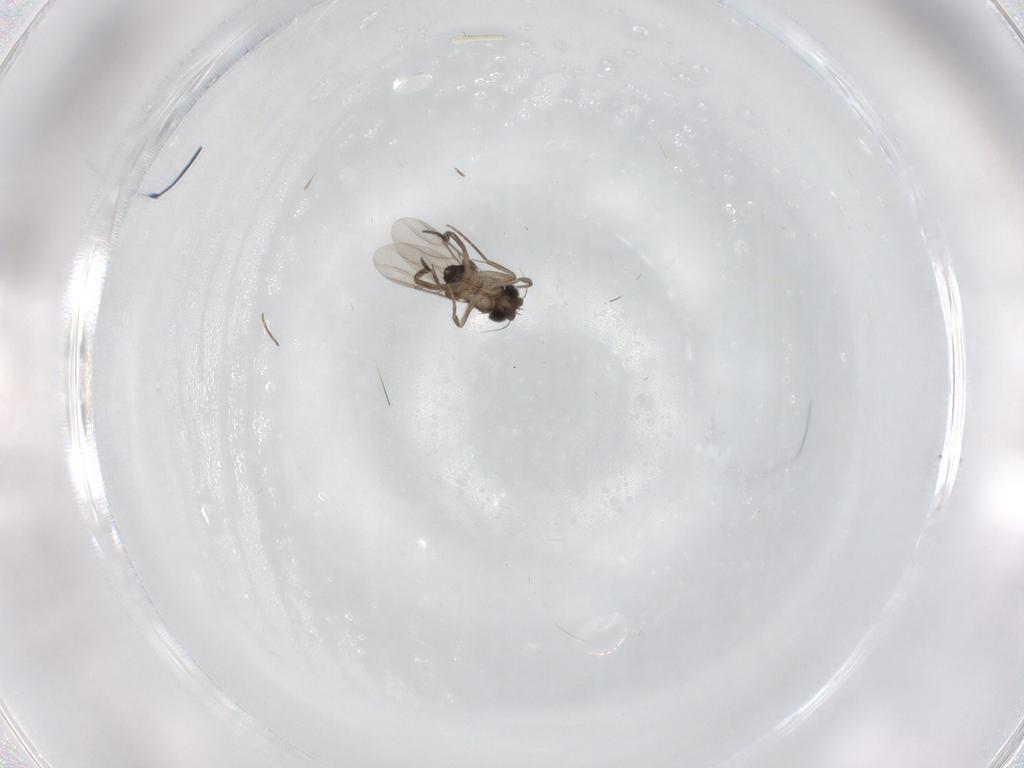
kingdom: Animalia
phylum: Arthropoda
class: Insecta
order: Diptera
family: Phoridae
